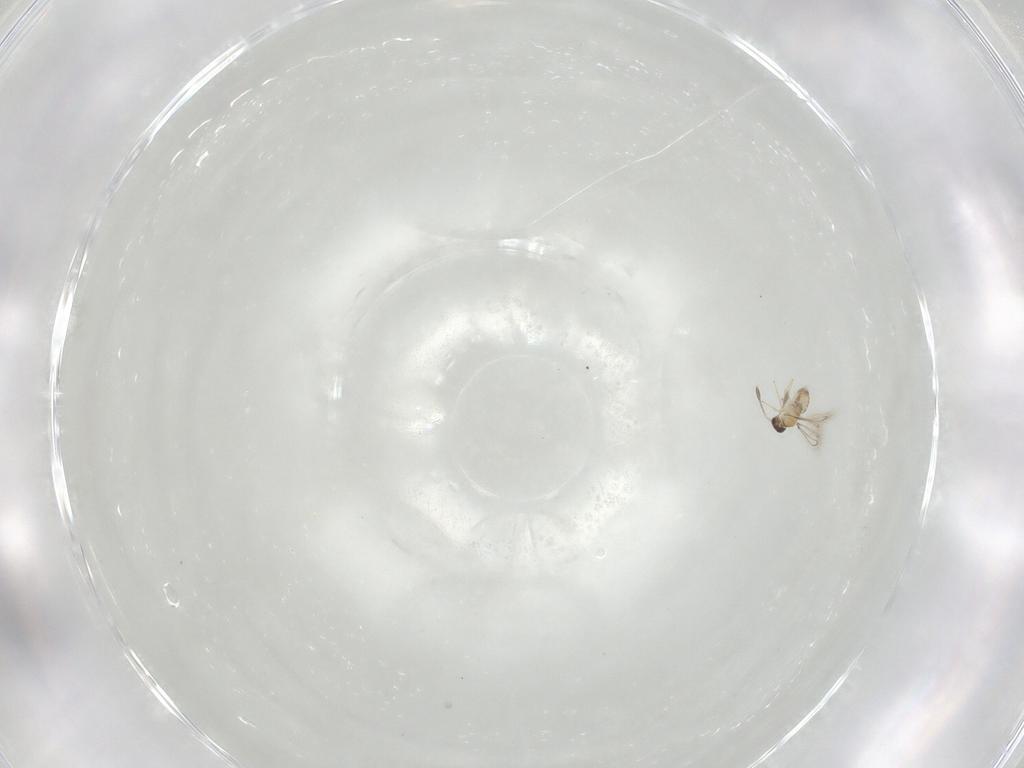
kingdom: Animalia
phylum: Arthropoda
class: Insecta
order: Hymenoptera
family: Mymaridae
